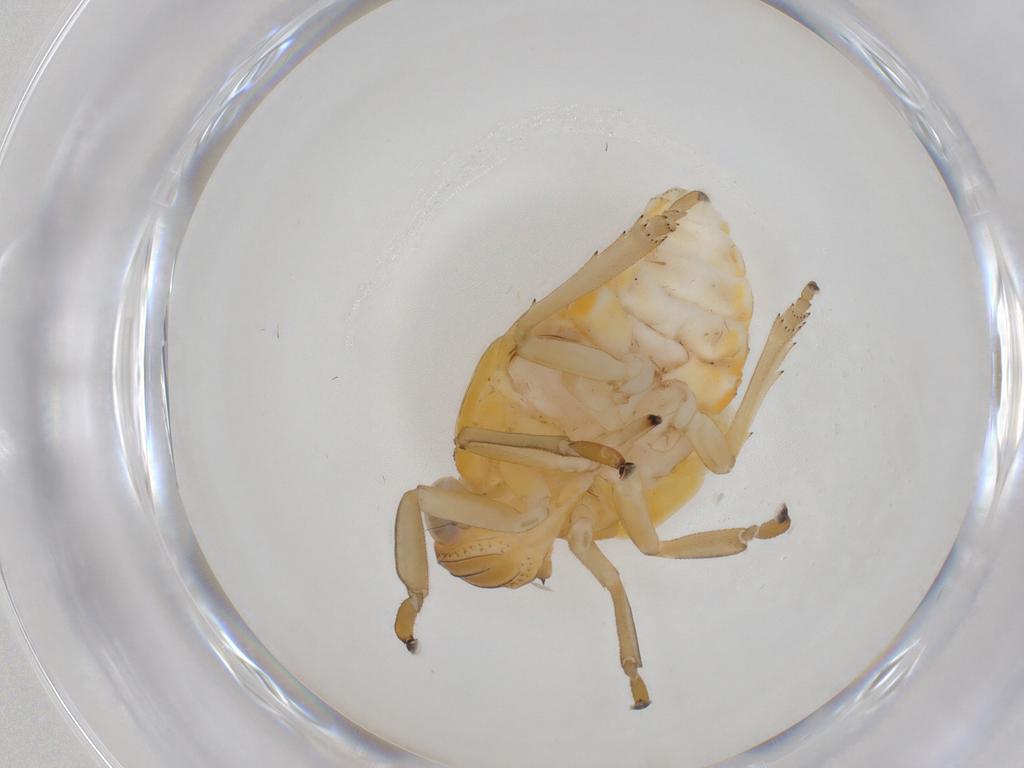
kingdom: Animalia
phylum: Arthropoda
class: Insecta
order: Hemiptera
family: Issidae
